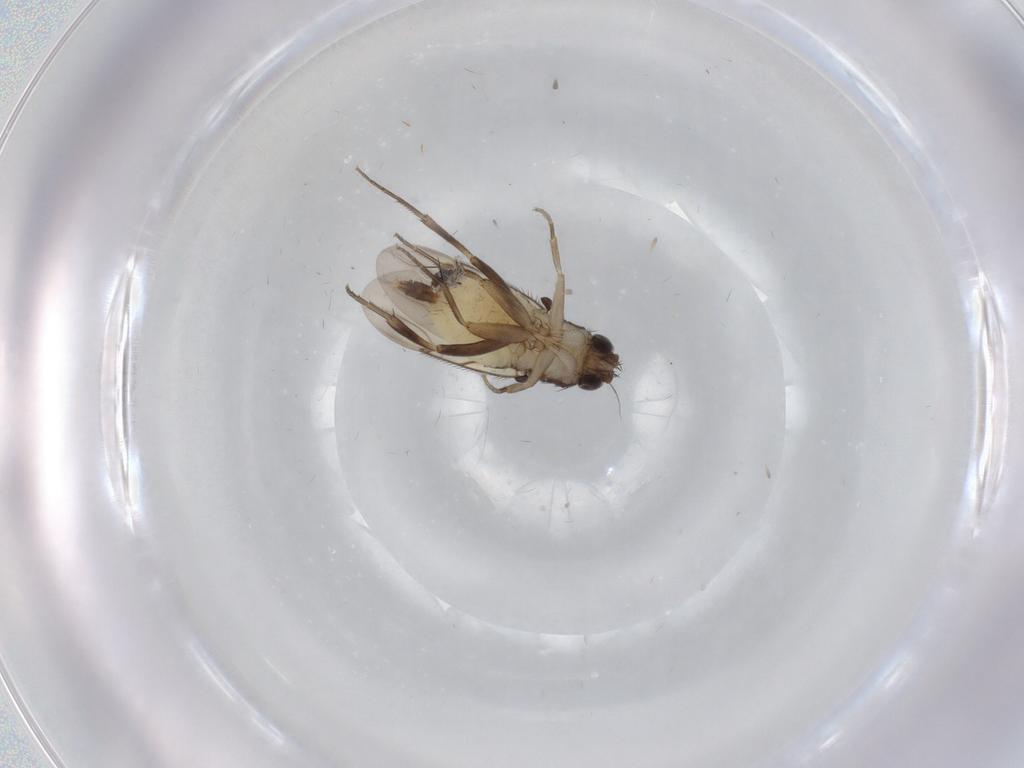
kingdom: Animalia
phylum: Arthropoda
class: Insecta
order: Diptera
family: Phoridae
